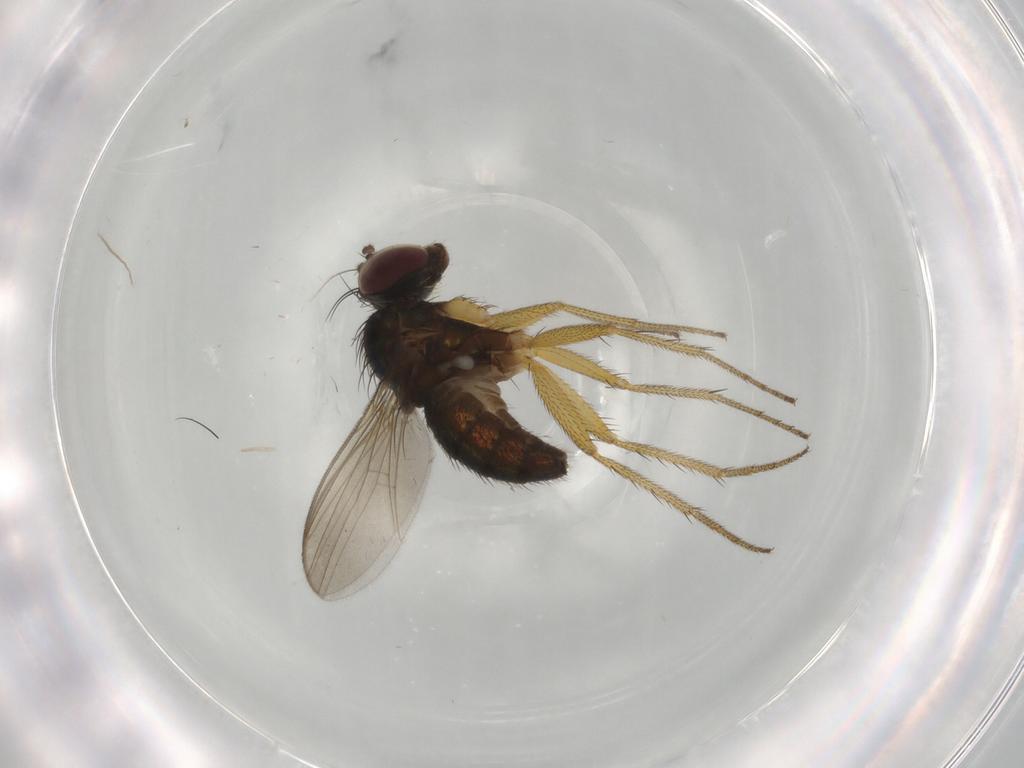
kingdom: Animalia
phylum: Arthropoda
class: Insecta
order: Diptera
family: Dolichopodidae
